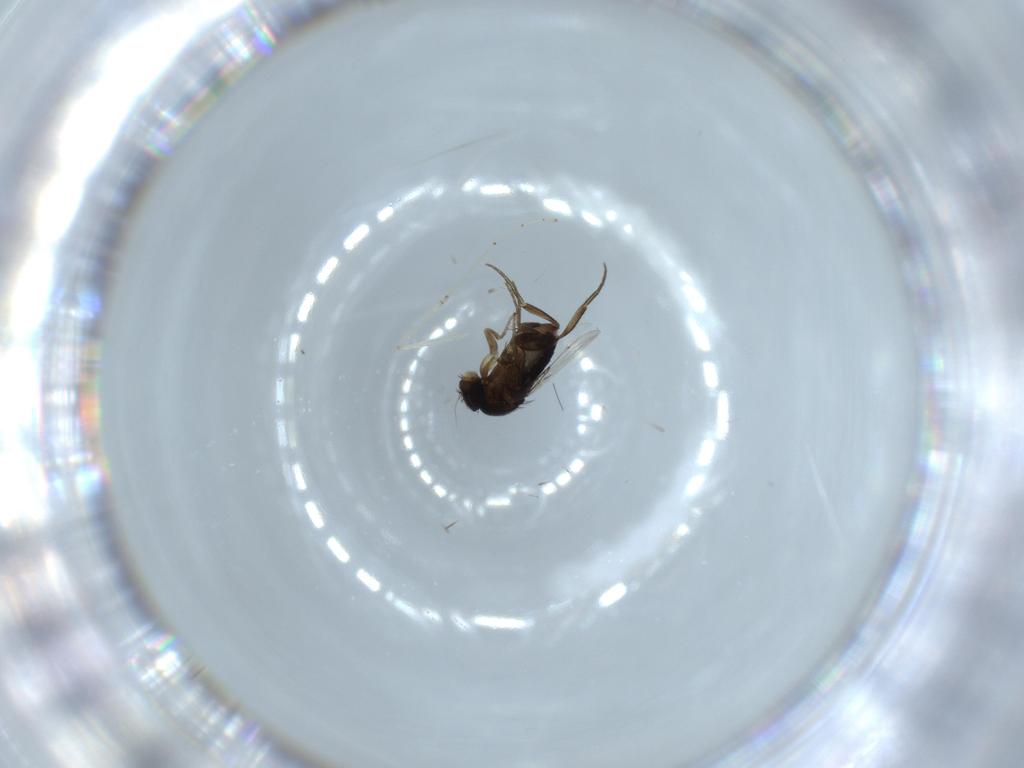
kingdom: Animalia
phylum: Arthropoda
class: Insecta
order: Diptera
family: Phoridae
